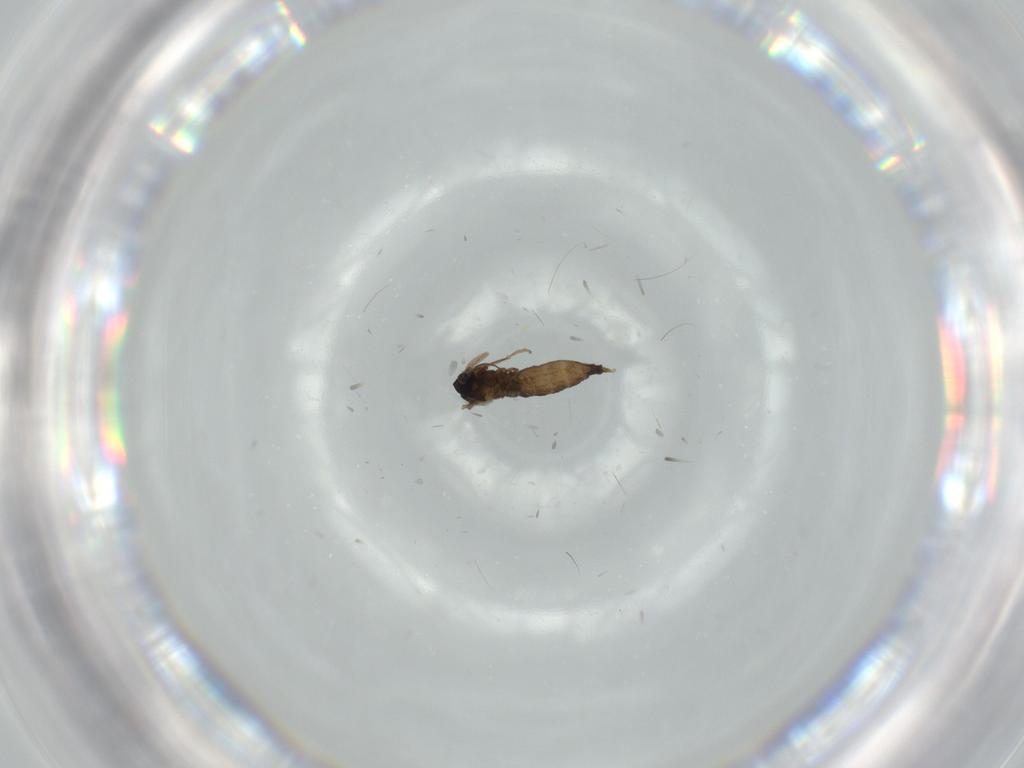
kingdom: Animalia
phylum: Arthropoda
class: Insecta
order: Diptera
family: Cecidomyiidae
